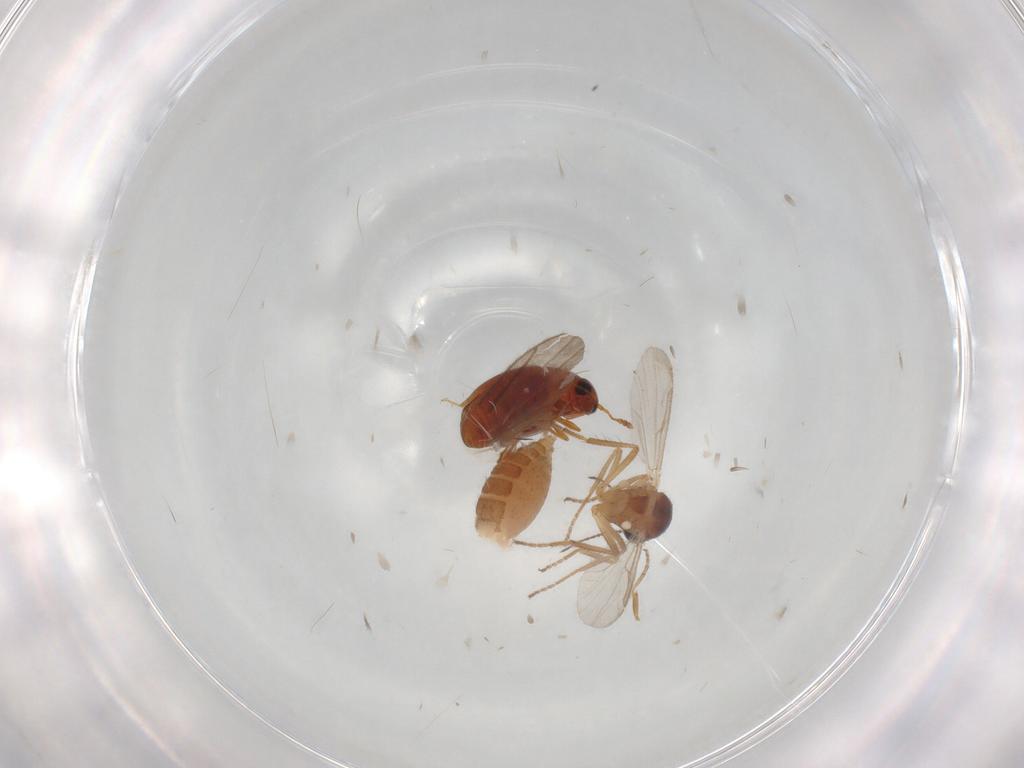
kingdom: Animalia
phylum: Arthropoda
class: Insecta
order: Diptera
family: Ceratopogonidae
